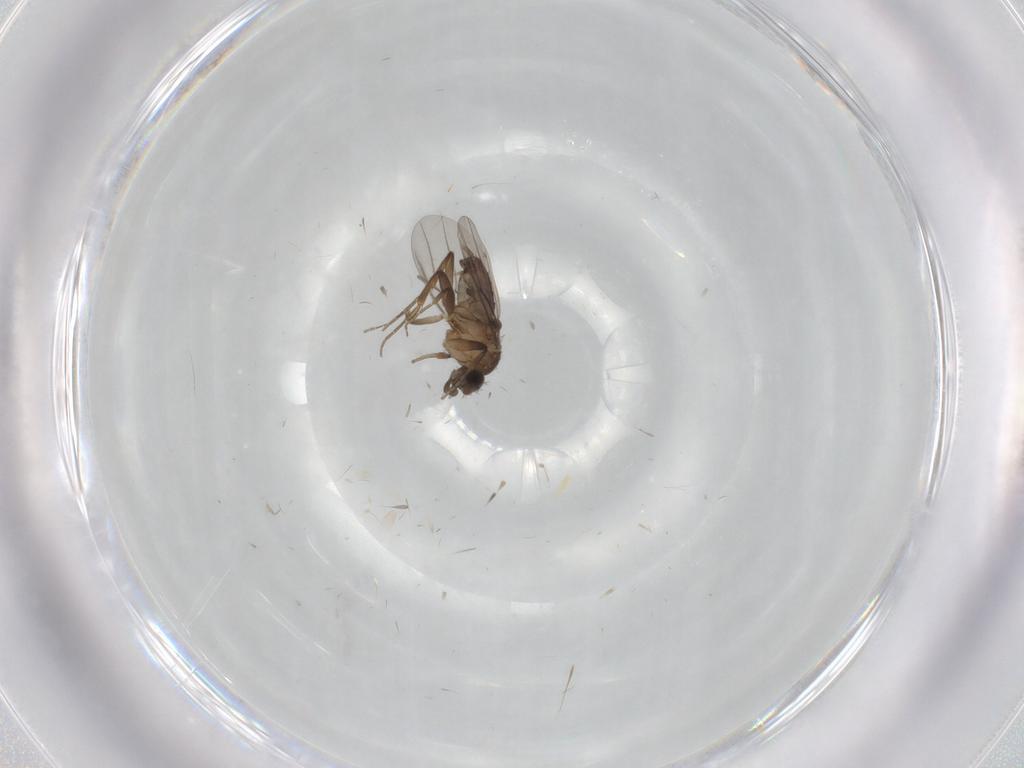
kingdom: Animalia
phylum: Arthropoda
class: Insecta
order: Diptera
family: Phoridae
